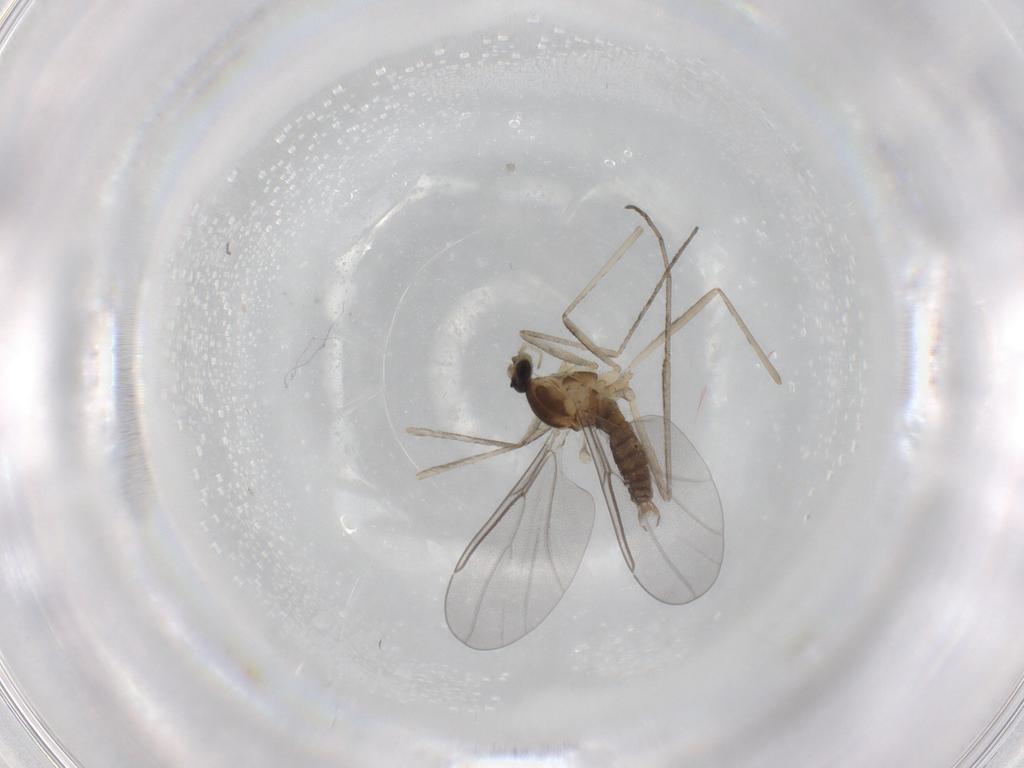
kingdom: Animalia
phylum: Arthropoda
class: Insecta
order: Diptera
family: Cecidomyiidae
